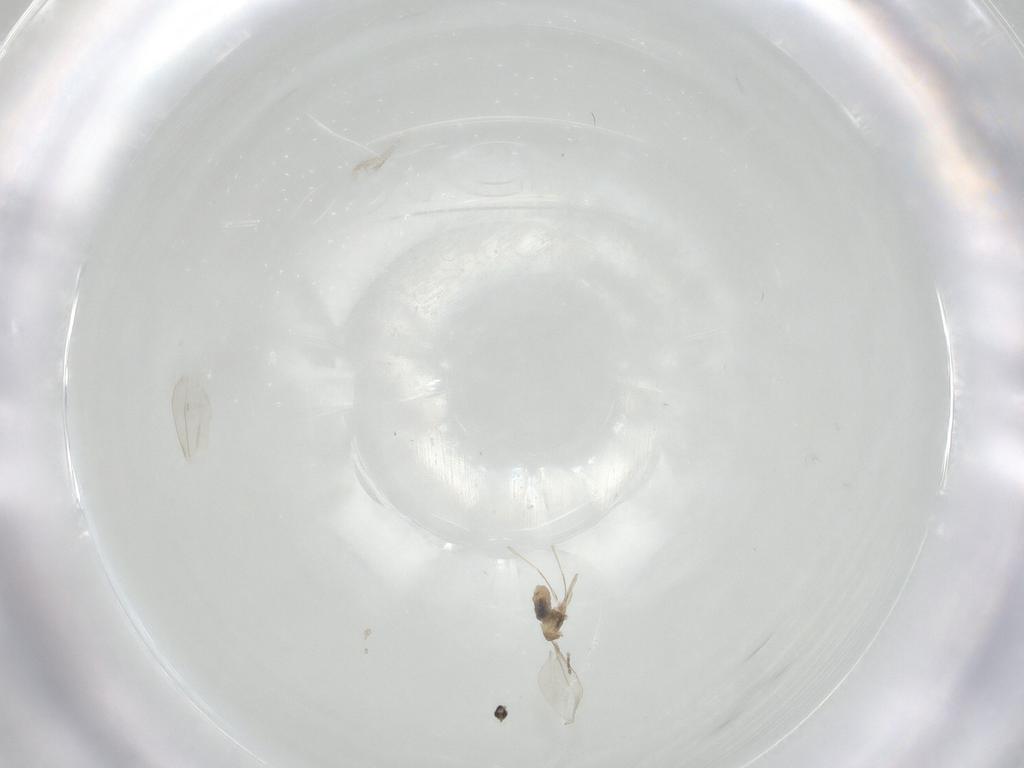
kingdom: Animalia
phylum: Arthropoda
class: Insecta
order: Diptera
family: Cecidomyiidae
